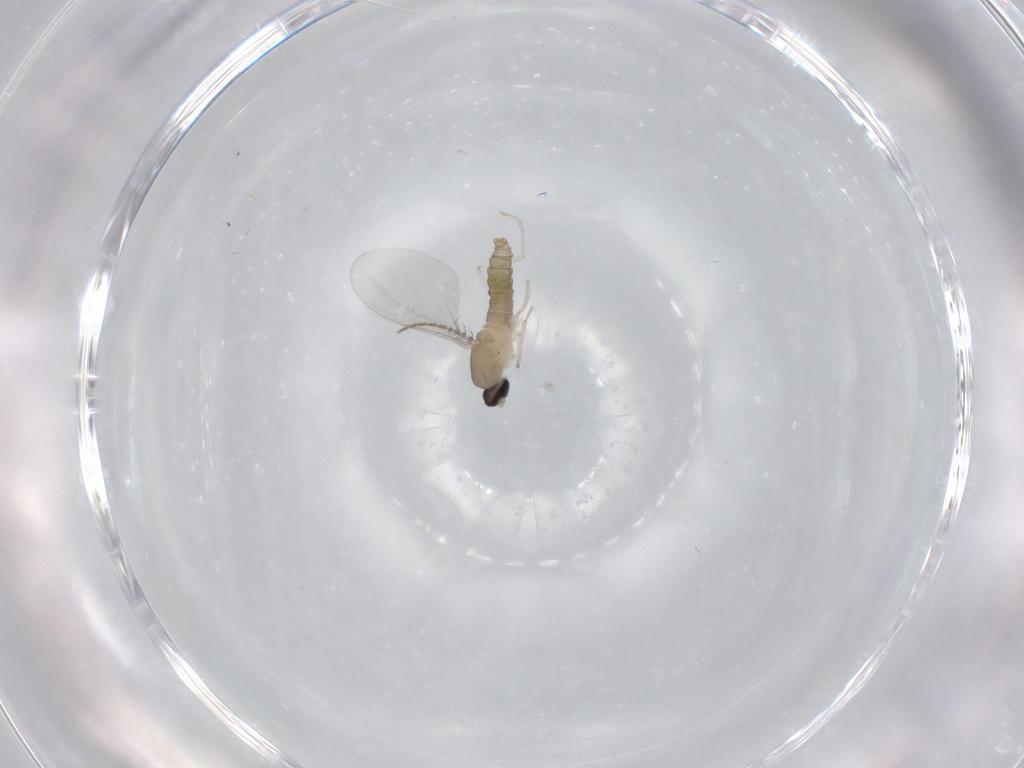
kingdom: Animalia
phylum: Arthropoda
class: Insecta
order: Diptera
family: Cecidomyiidae
